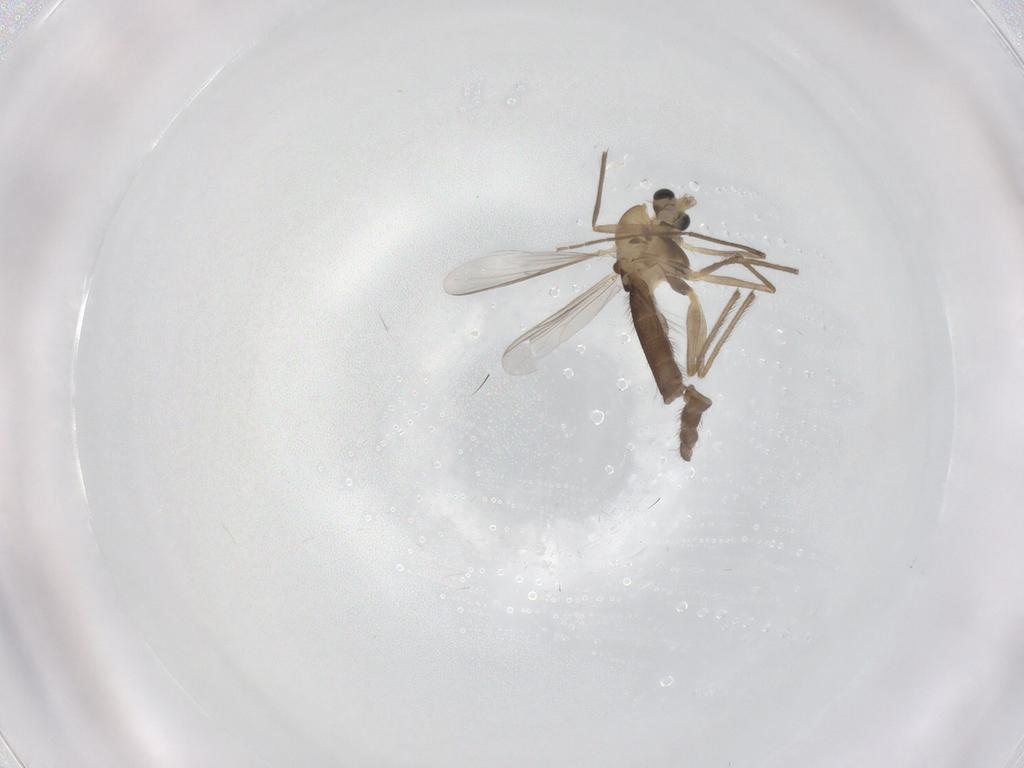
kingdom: Animalia
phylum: Arthropoda
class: Insecta
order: Diptera
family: Chironomidae
